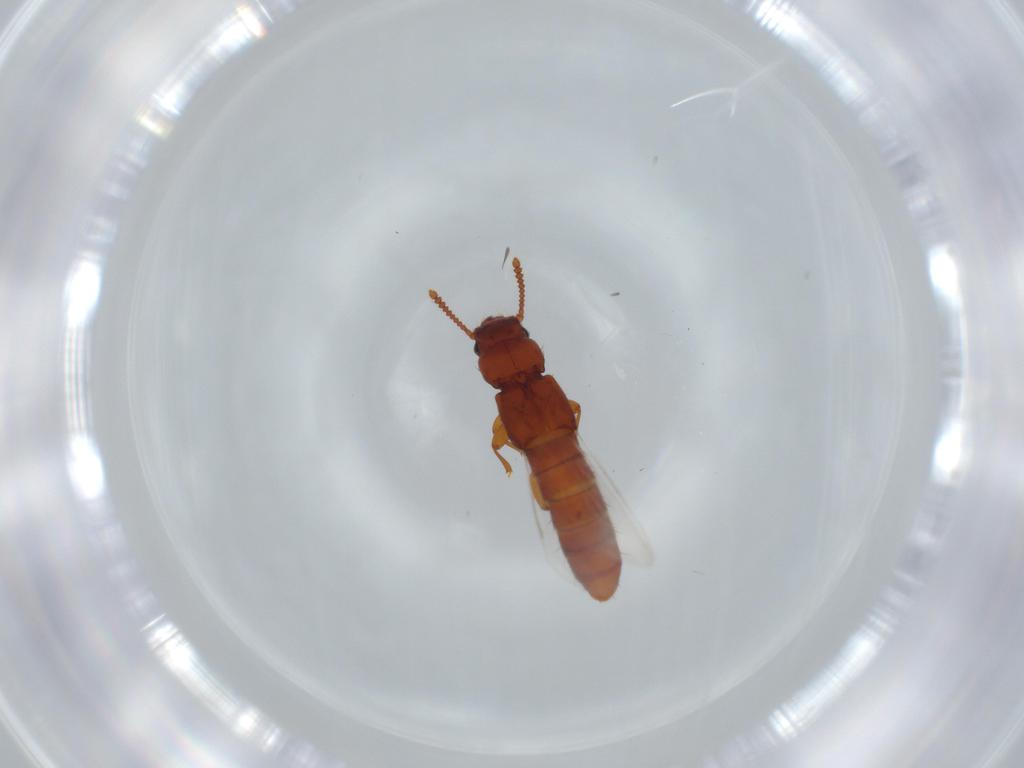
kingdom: Animalia
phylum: Arthropoda
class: Insecta
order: Coleoptera
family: Staphylinidae
